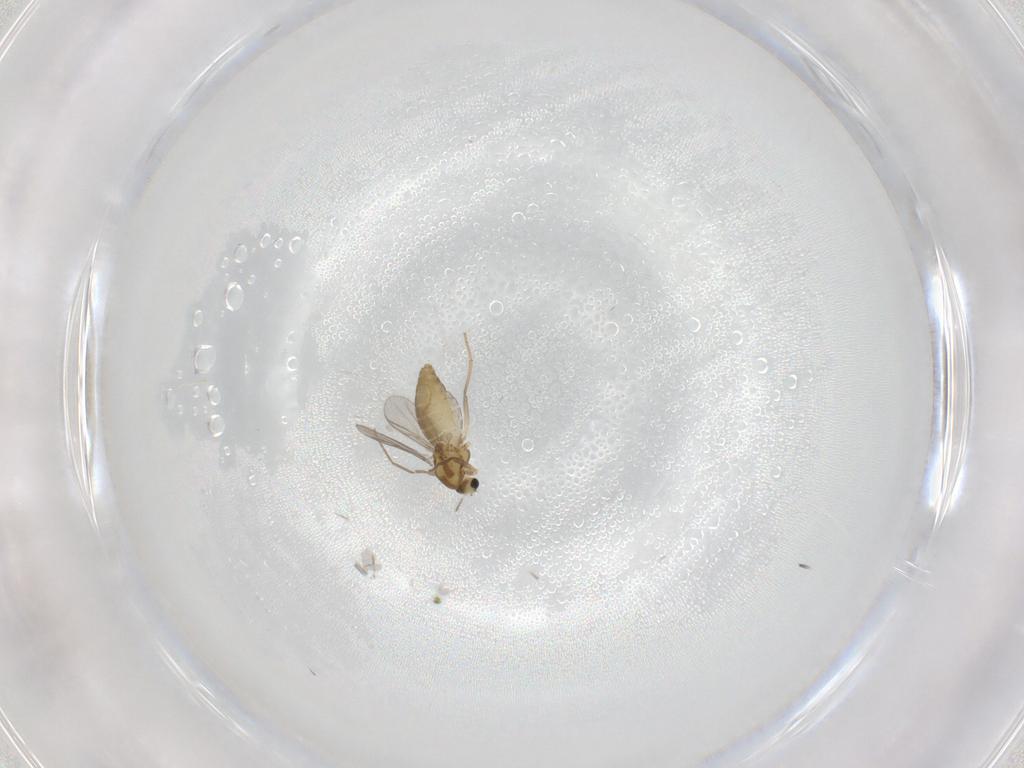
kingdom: Animalia
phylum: Arthropoda
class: Insecta
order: Diptera
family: Chironomidae
